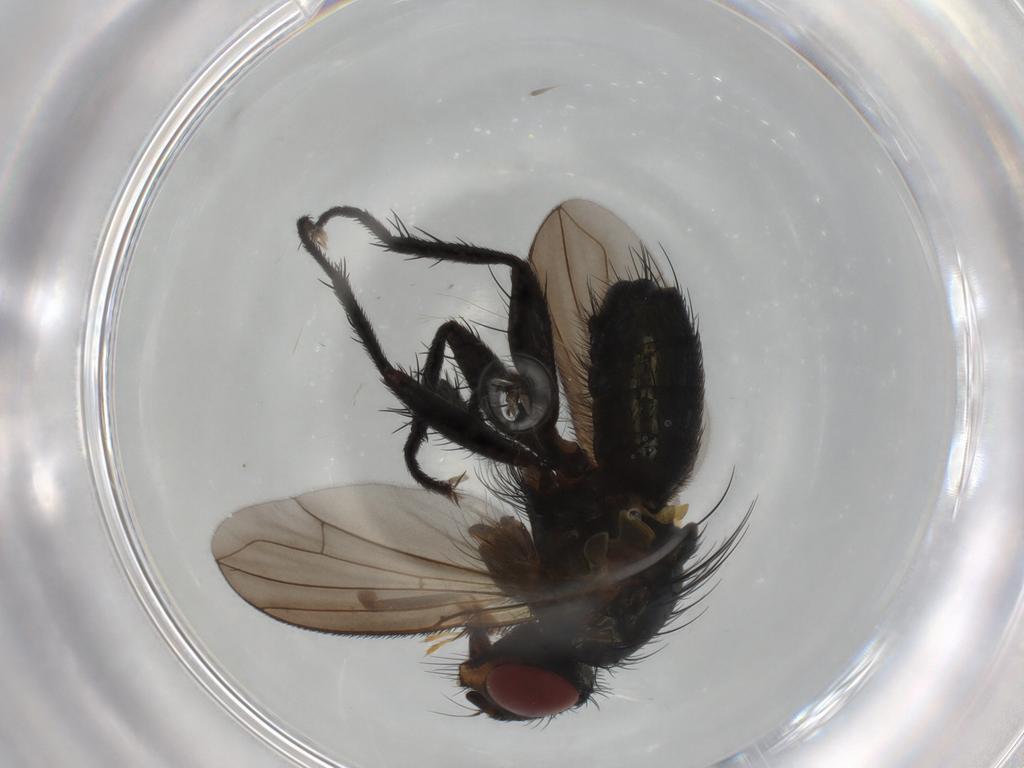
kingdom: Animalia
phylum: Arthropoda
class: Insecta
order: Diptera
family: Calliphoridae
